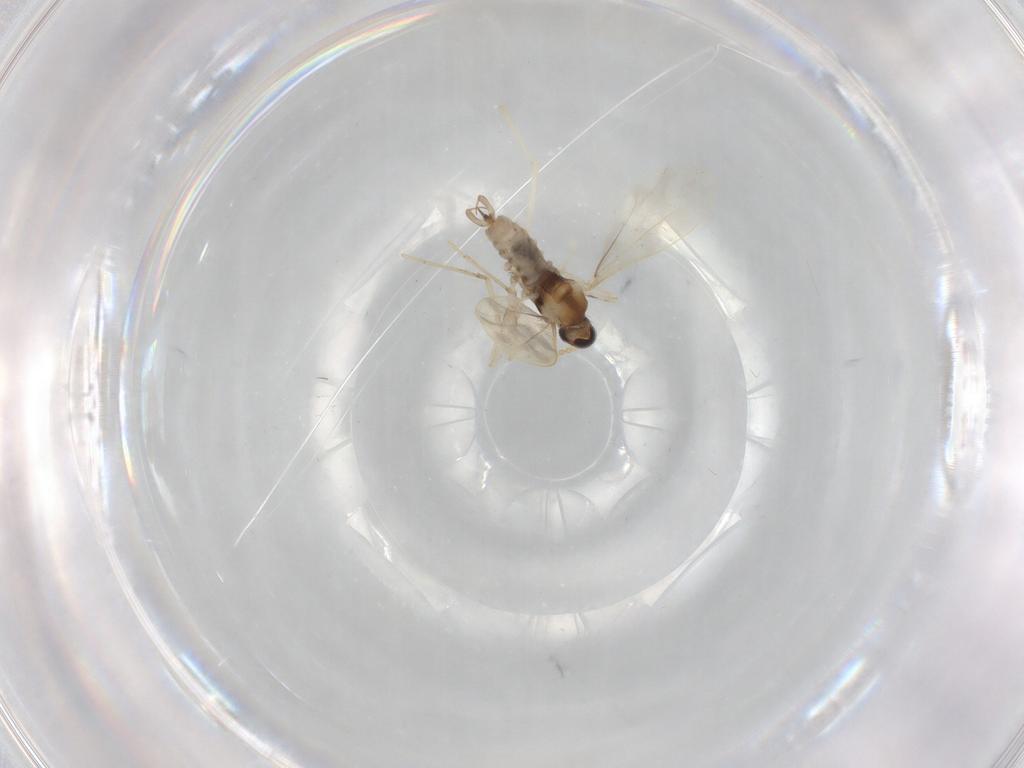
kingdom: Animalia
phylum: Arthropoda
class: Insecta
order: Diptera
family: Cecidomyiidae
